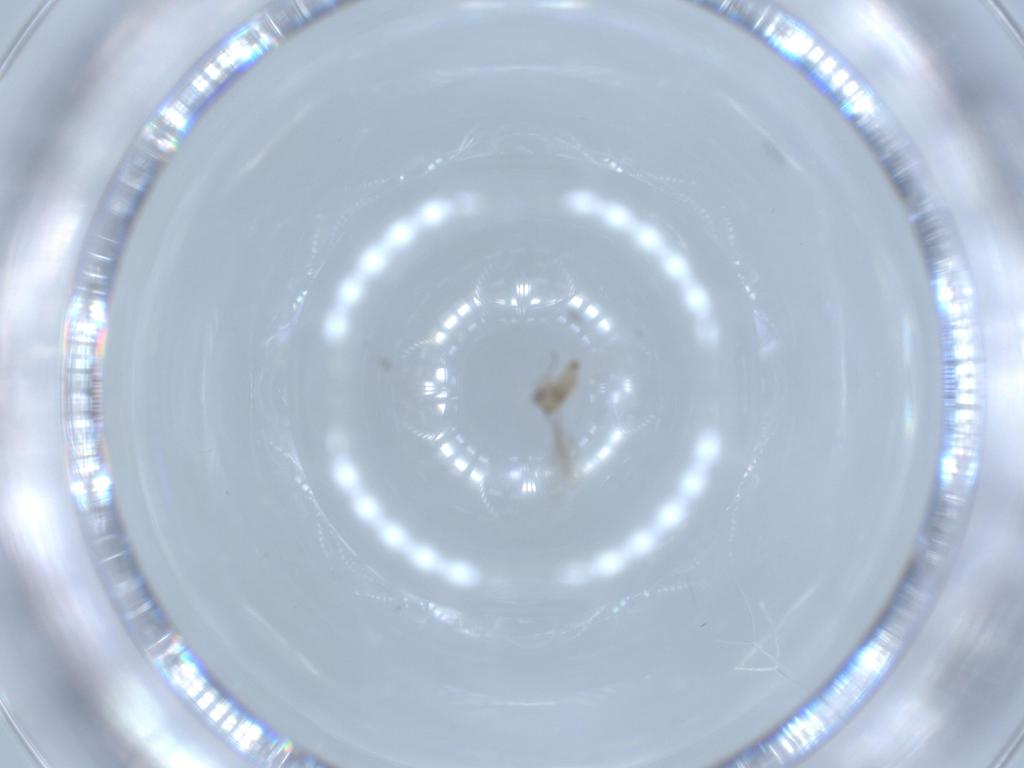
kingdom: Animalia
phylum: Arthropoda
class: Insecta
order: Diptera
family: Cecidomyiidae
